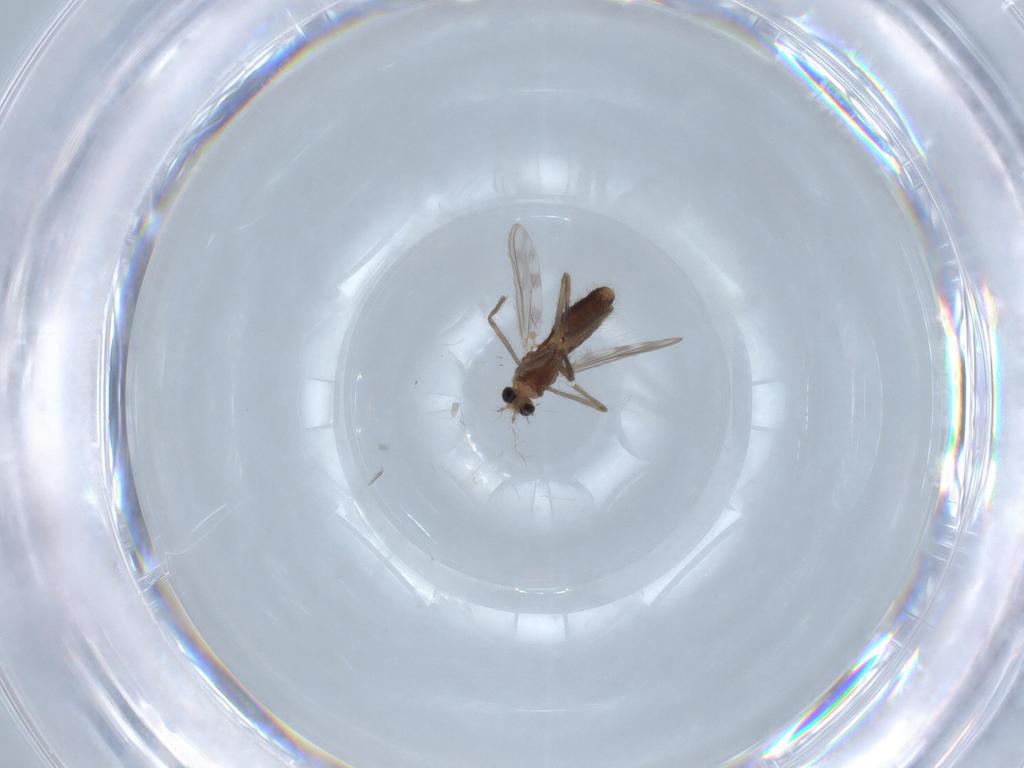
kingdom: Animalia
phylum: Arthropoda
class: Insecta
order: Diptera
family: Chironomidae
